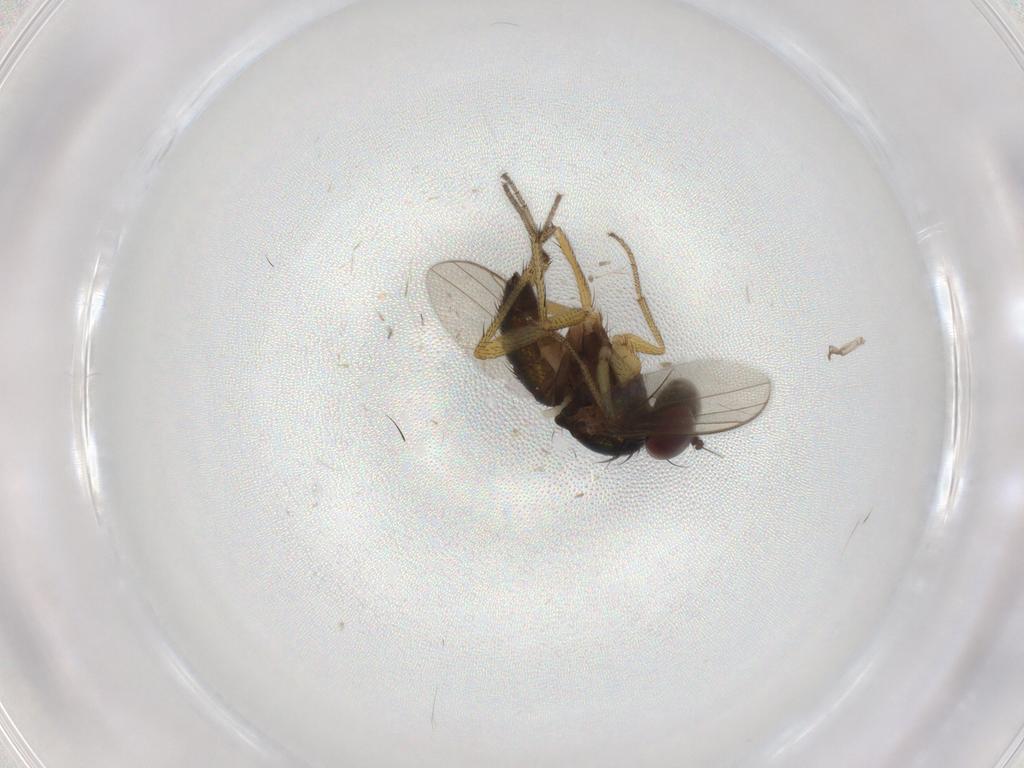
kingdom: Animalia
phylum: Arthropoda
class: Insecta
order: Diptera
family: Dolichopodidae
